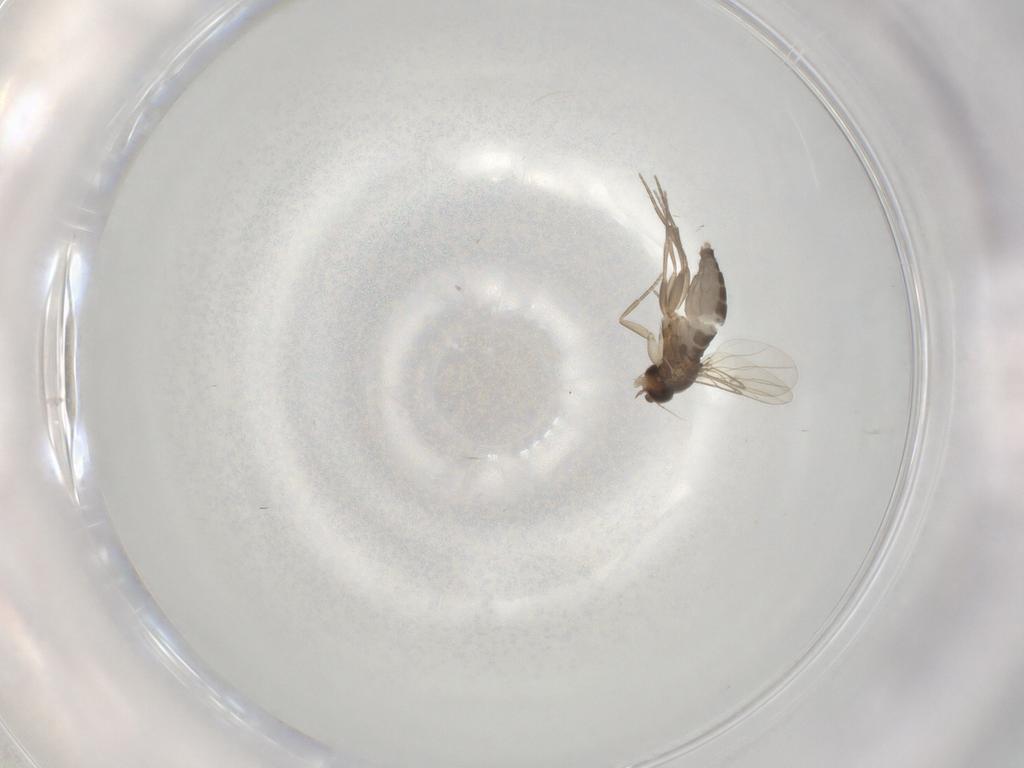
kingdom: Animalia
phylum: Arthropoda
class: Insecta
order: Diptera
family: Phoridae
